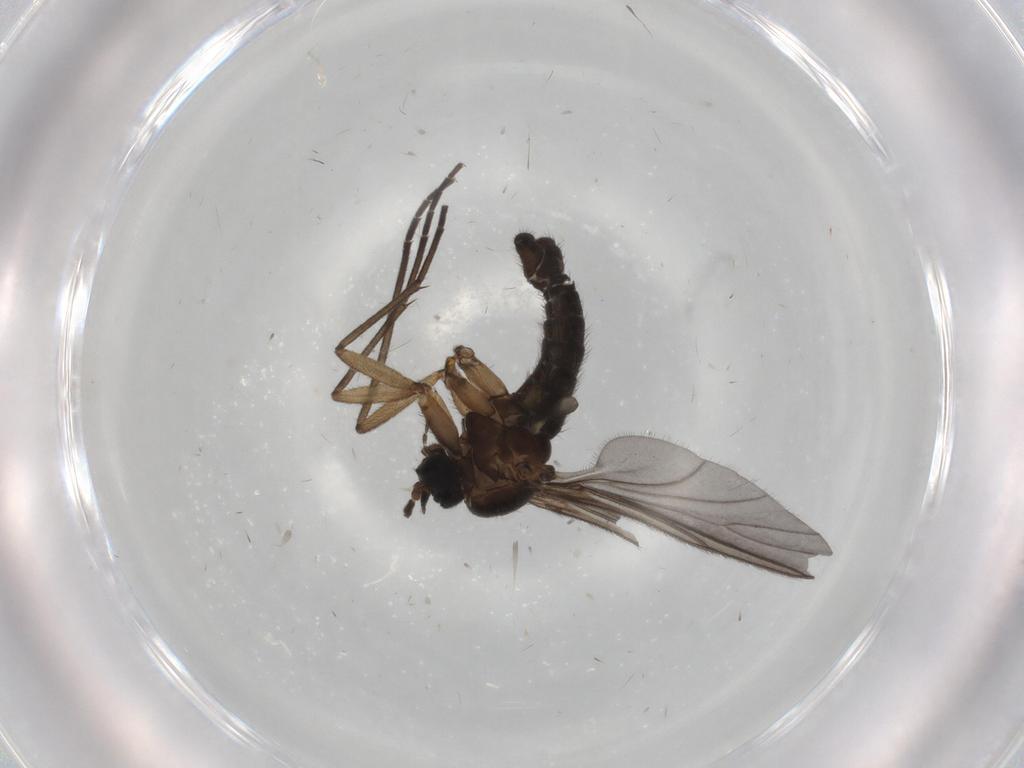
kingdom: Animalia
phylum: Arthropoda
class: Insecta
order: Diptera
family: Sciaridae
